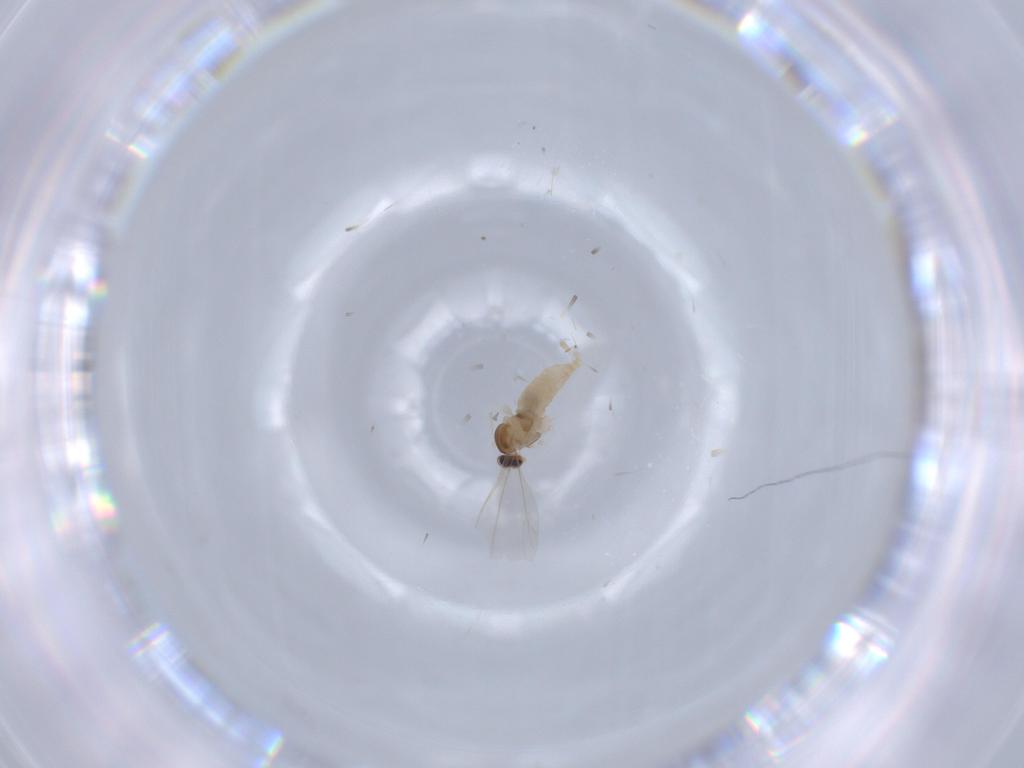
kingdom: Animalia
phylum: Arthropoda
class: Insecta
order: Diptera
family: Cecidomyiidae
